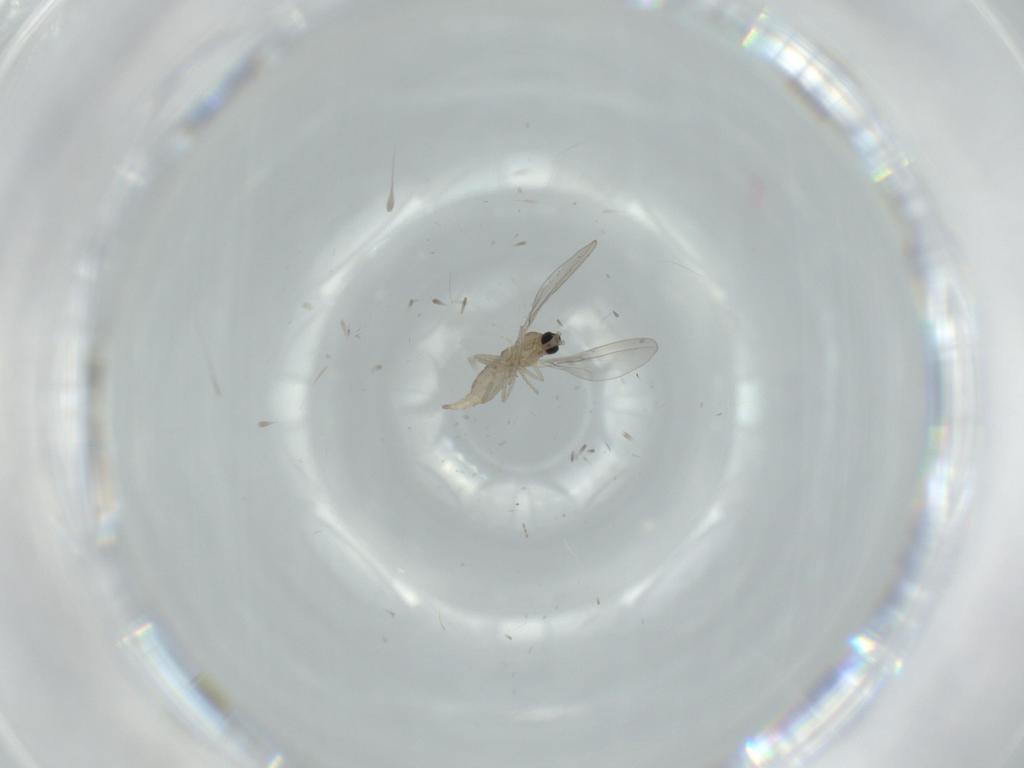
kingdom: Animalia
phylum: Arthropoda
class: Insecta
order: Diptera
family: Cecidomyiidae
